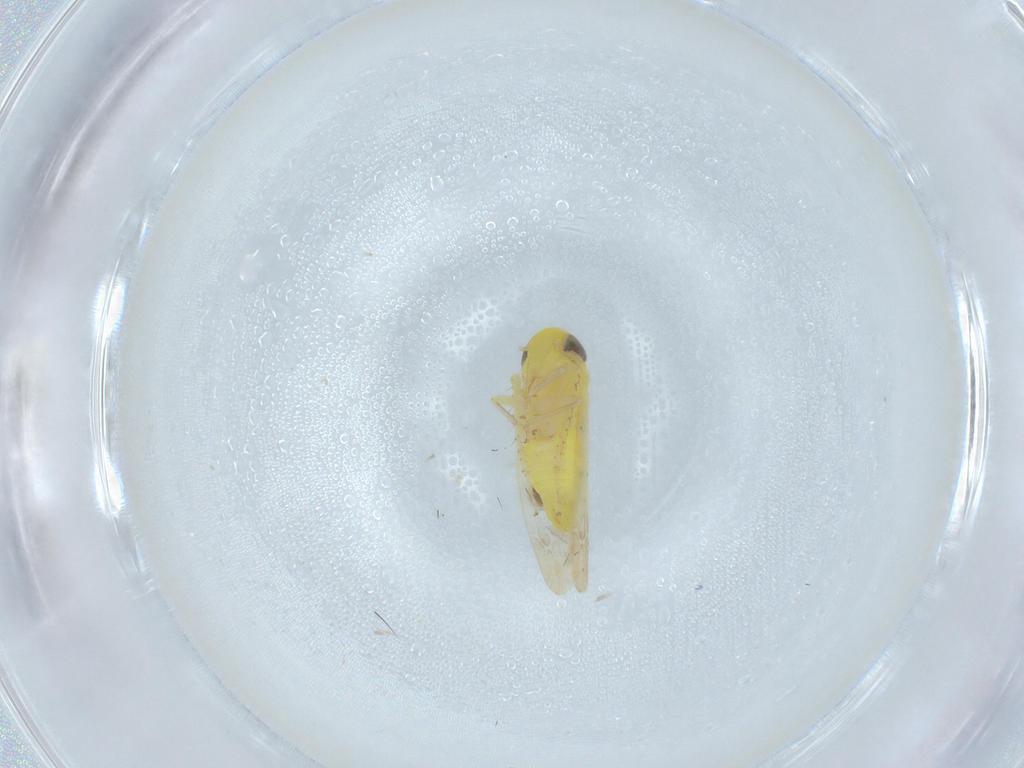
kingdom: Animalia
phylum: Arthropoda
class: Insecta
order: Hemiptera
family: Cicadellidae
